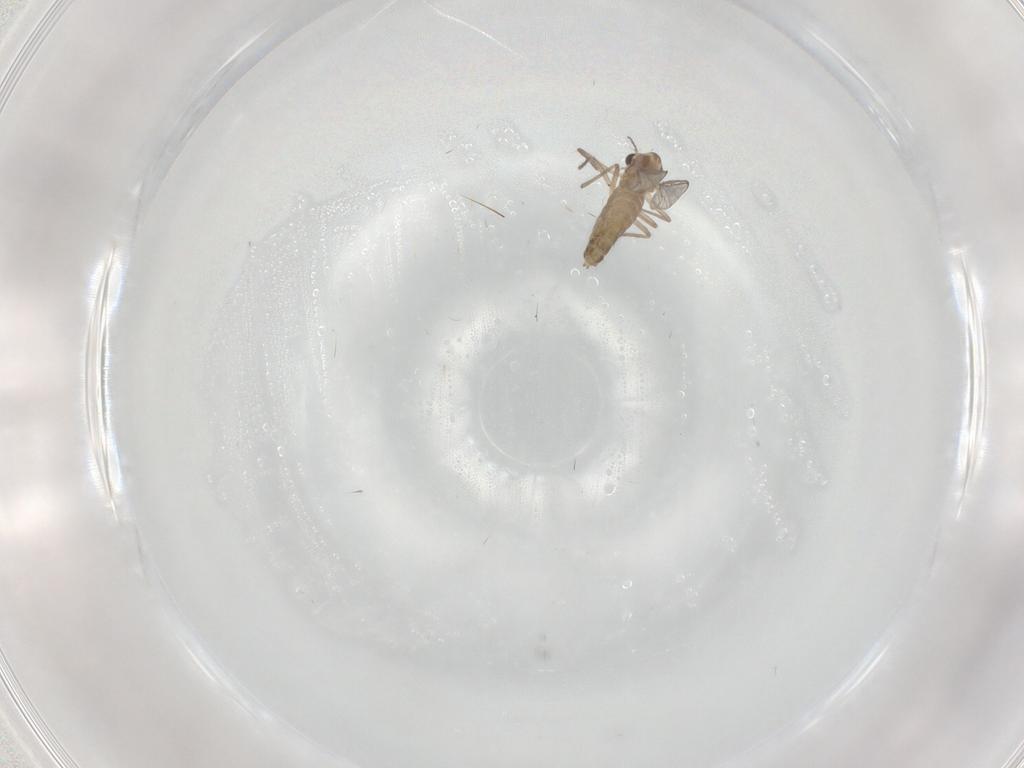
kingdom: Animalia
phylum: Arthropoda
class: Insecta
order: Diptera
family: Chironomidae
